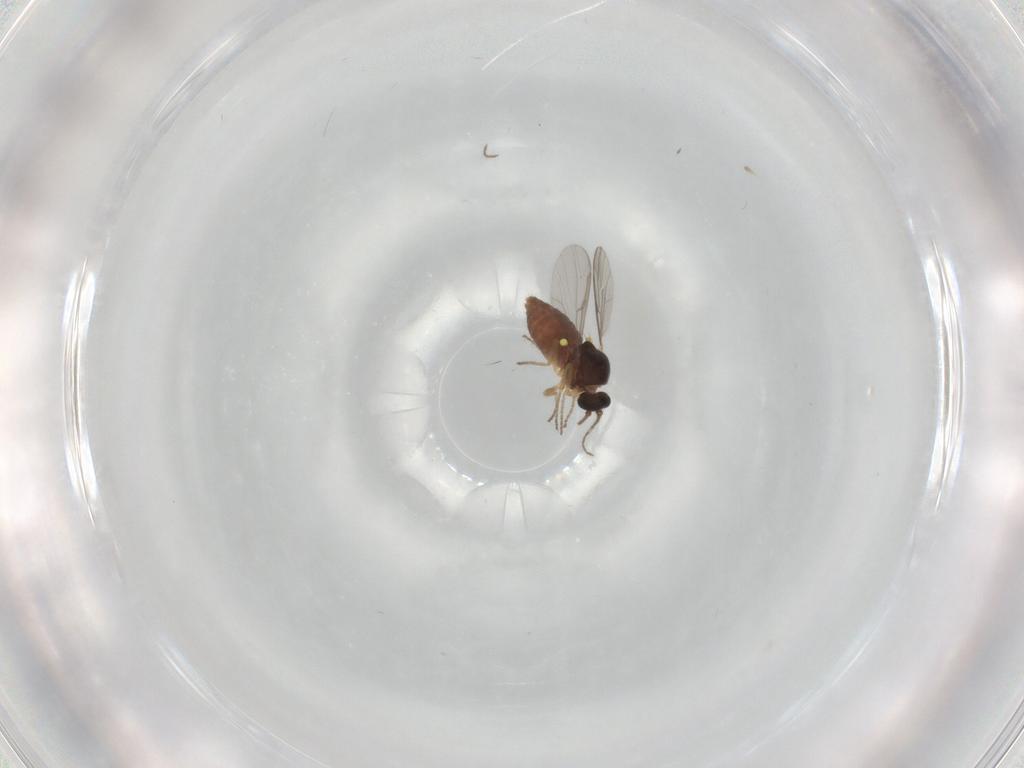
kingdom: Animalia
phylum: Arthropoda
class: Insecta
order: Diptera
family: Ceratopogonidae
